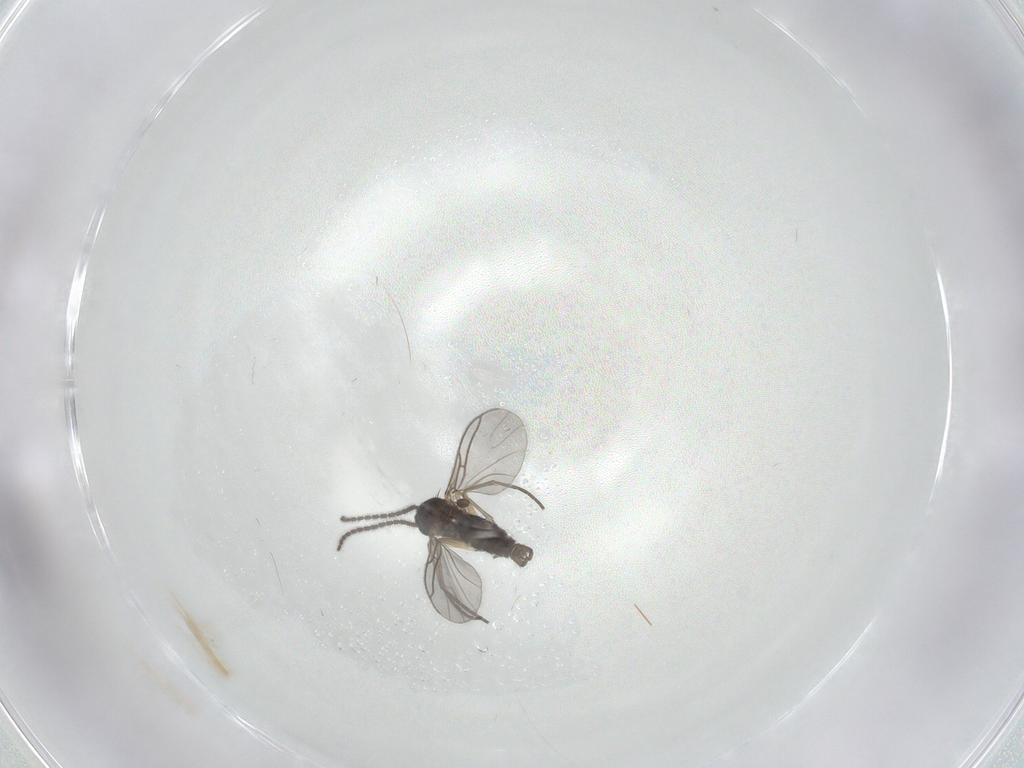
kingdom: Animalia
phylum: Arthropoda
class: Insecta
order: Diptera
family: Sciaridae
